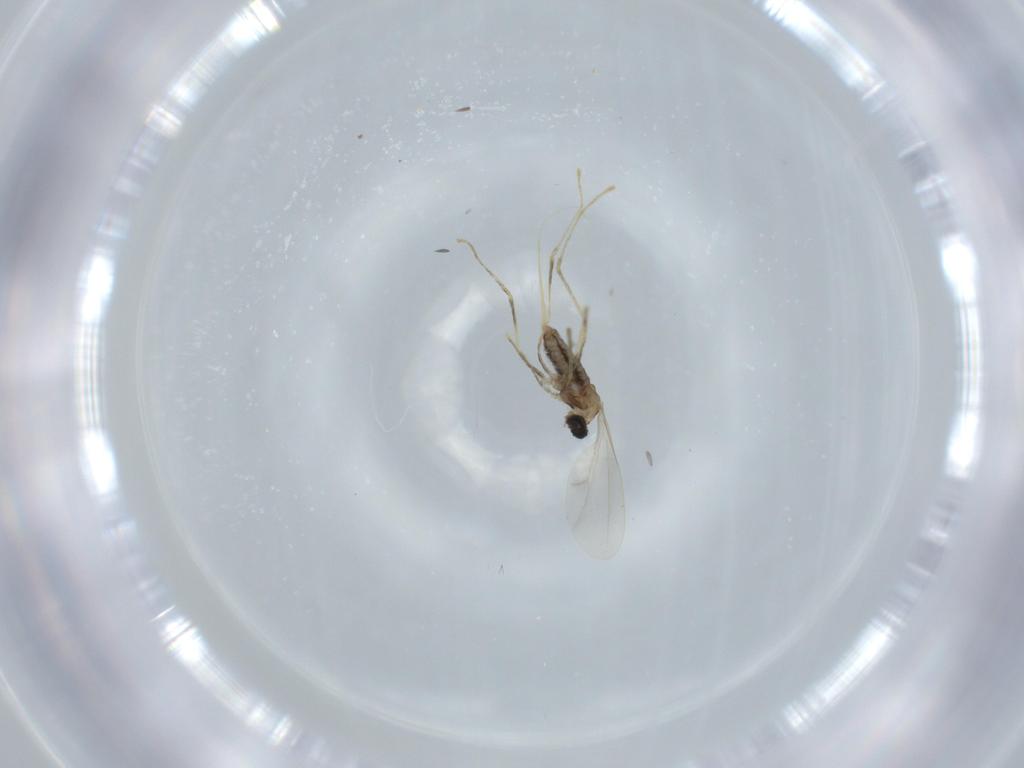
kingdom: Animalia
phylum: Arthropoda
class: Insecta
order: Diptera
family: Cecidomyiidae
